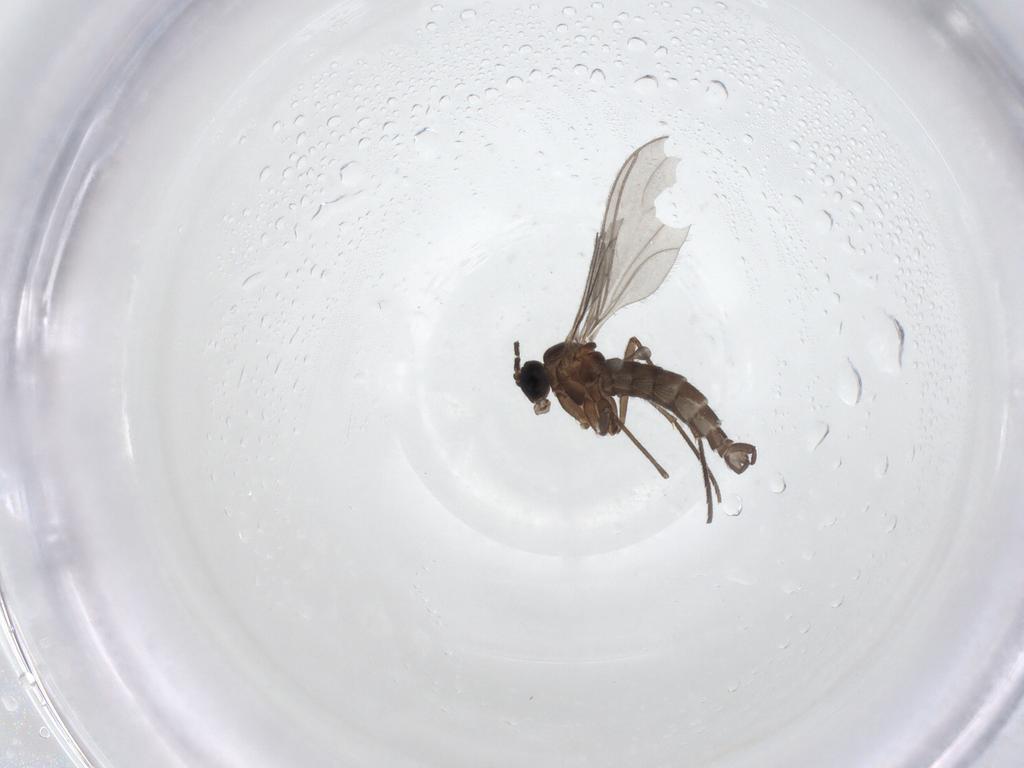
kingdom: Animalia
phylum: Arthropoda
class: Insecta
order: Diptera
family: Sciaridae
